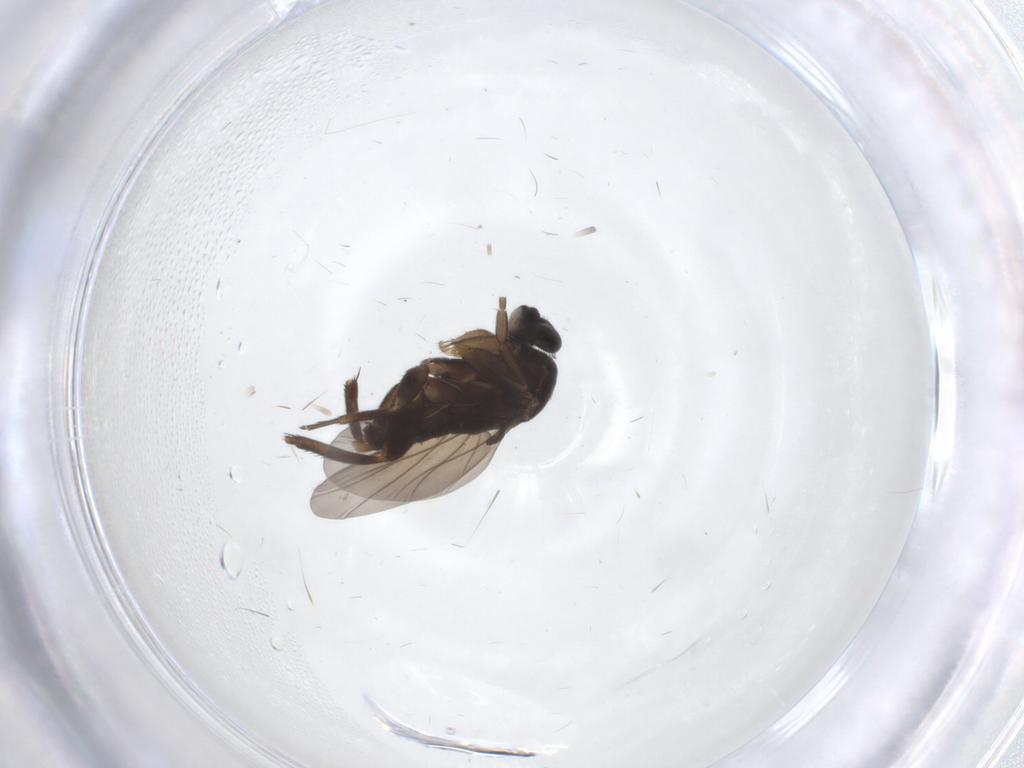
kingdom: Animalia
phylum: Arthropoda
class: Insecta
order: Diptera
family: Phoridae
